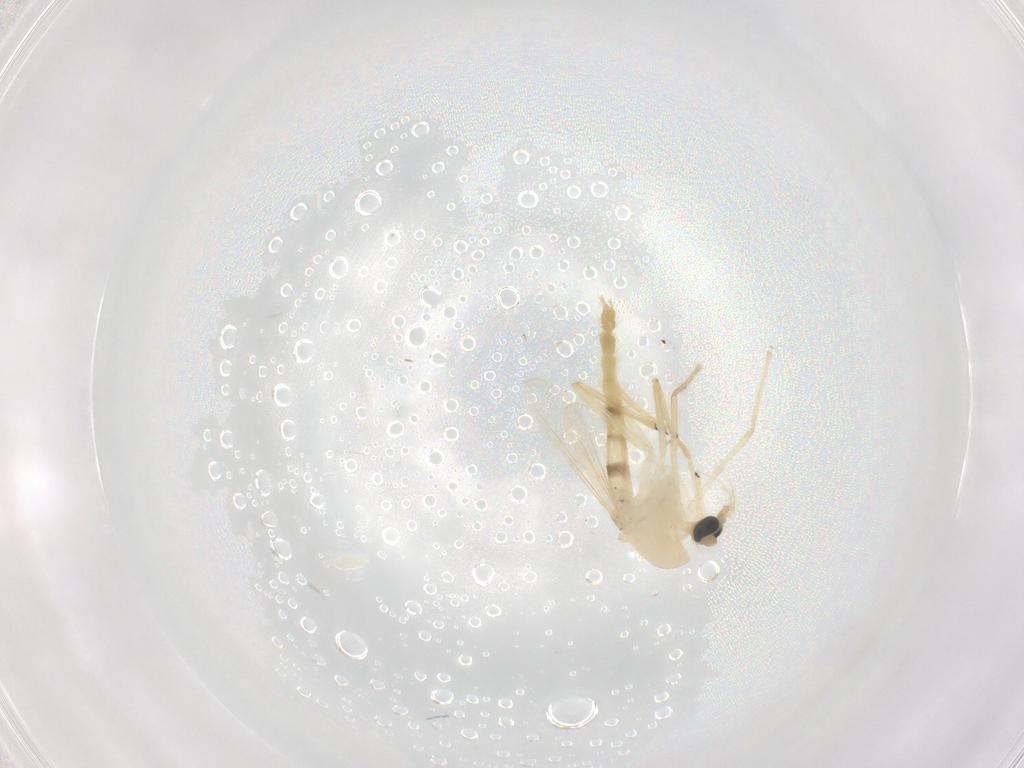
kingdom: Animalia
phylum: Arthropoda
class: Insecta
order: Diptera
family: Chironomidae
